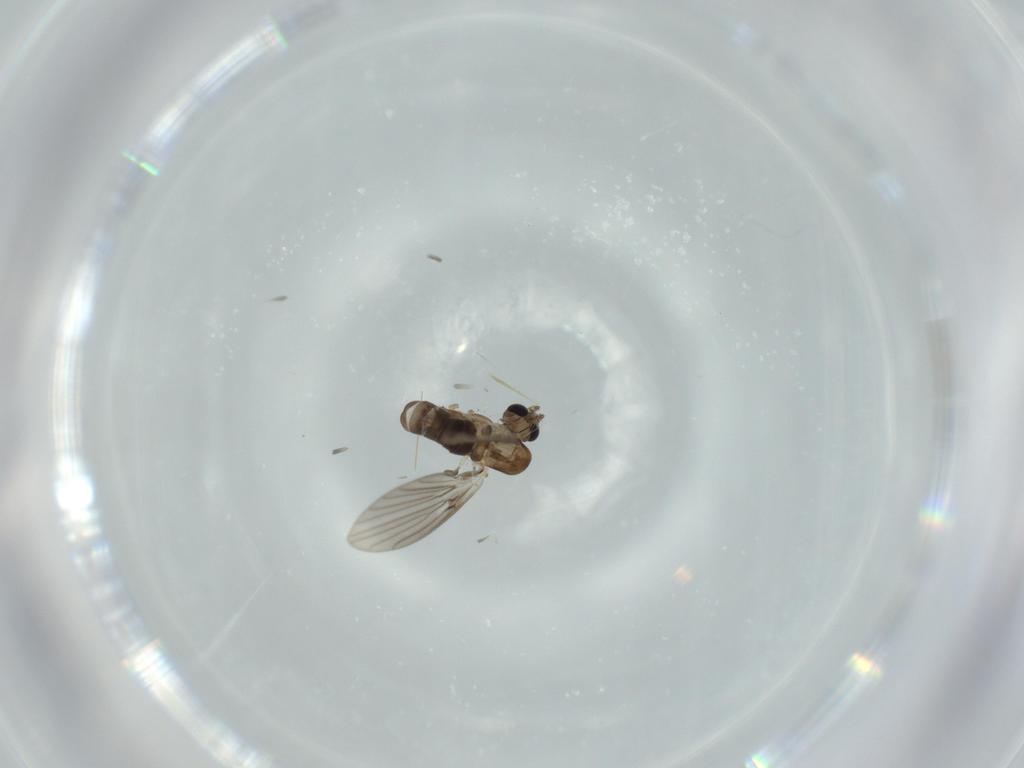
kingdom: Animalia
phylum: Arthropoda
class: Insecta
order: Diptera
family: Psychodidae
